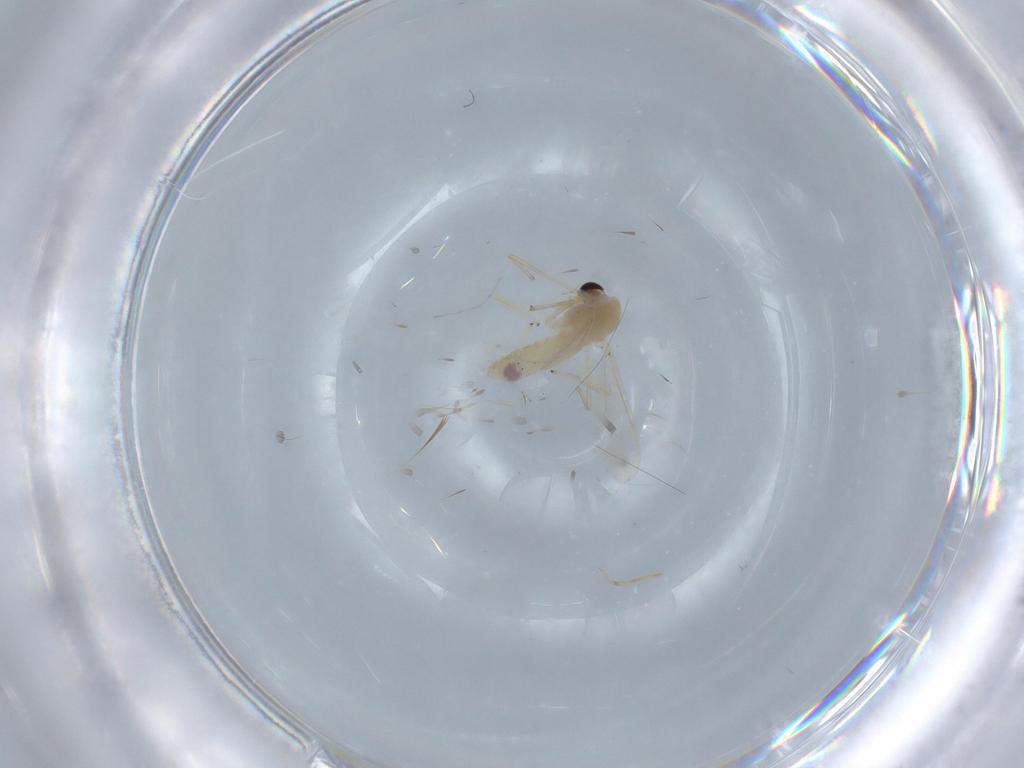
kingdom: Animalia
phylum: Arthropoda
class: Insecta
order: Diptera
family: Chironomidae
